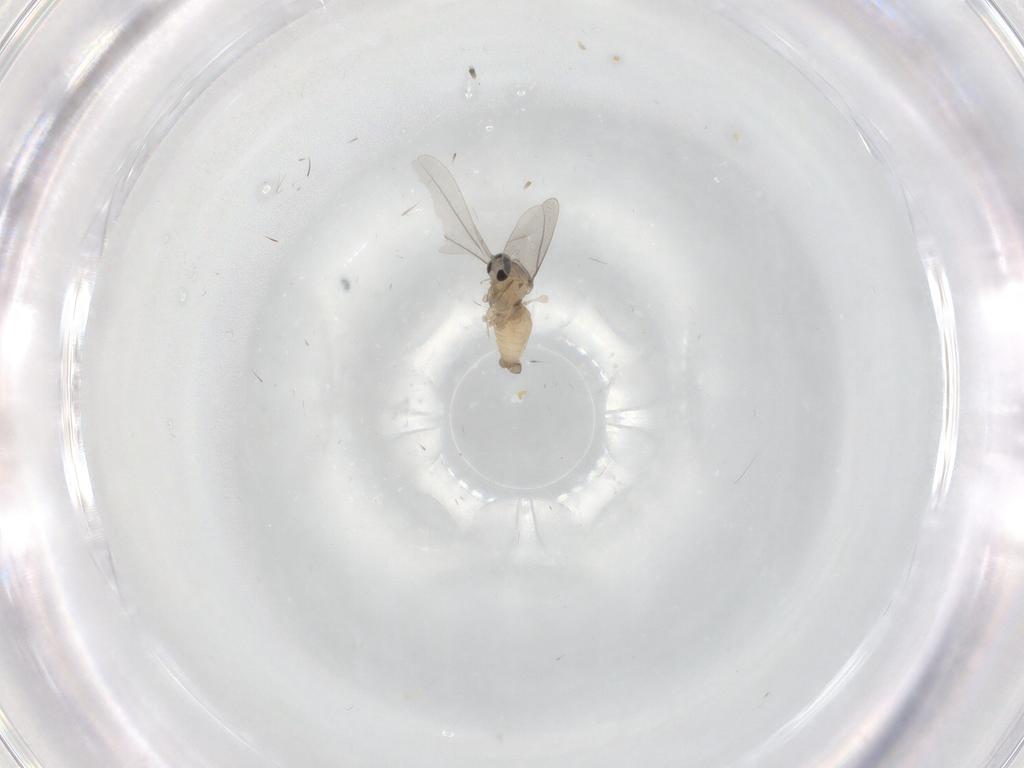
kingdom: Animalia
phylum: Arthropoda
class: Insecta
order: Diptera
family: Cecidomyiidae
